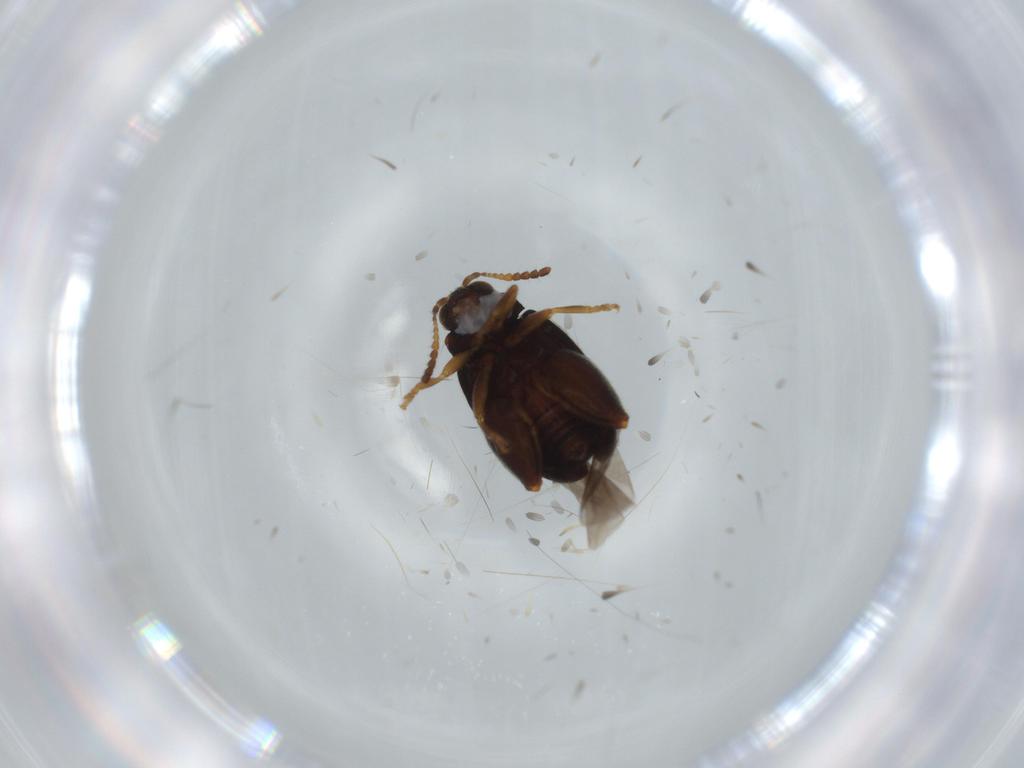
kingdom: Animalia
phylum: Arthropoda
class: Insecta
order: Coleoptera
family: Chrysomelidae
